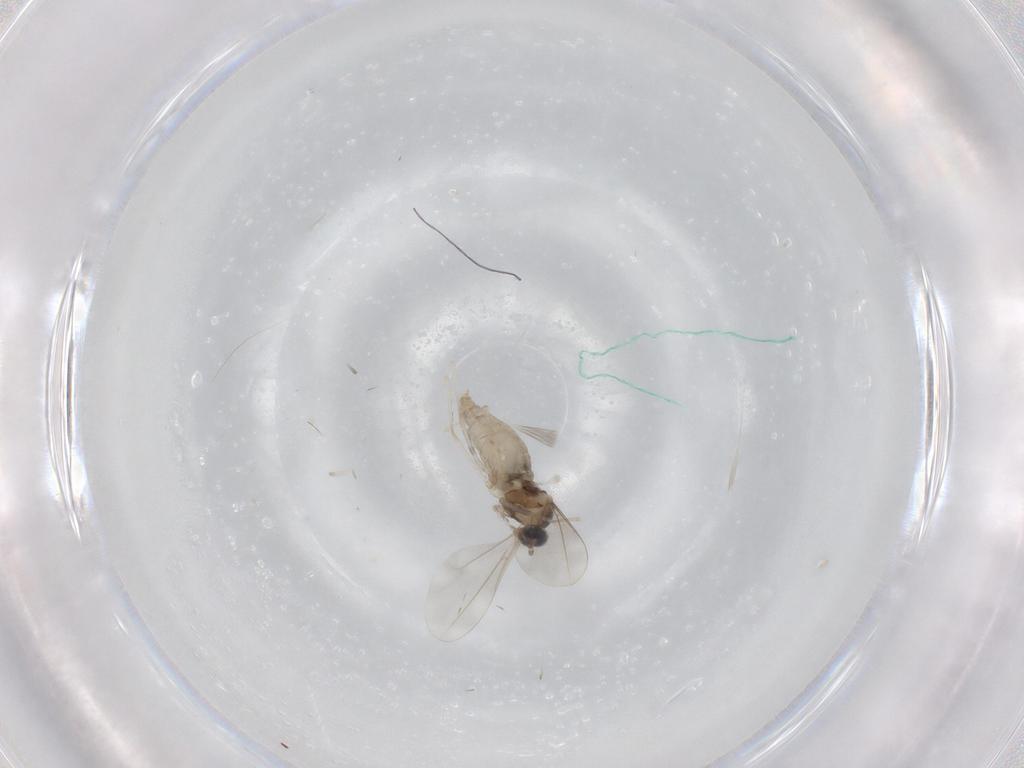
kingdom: Animalia
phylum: Arthropoda
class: Insecta
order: Diptera
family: Cecidomyiidae
